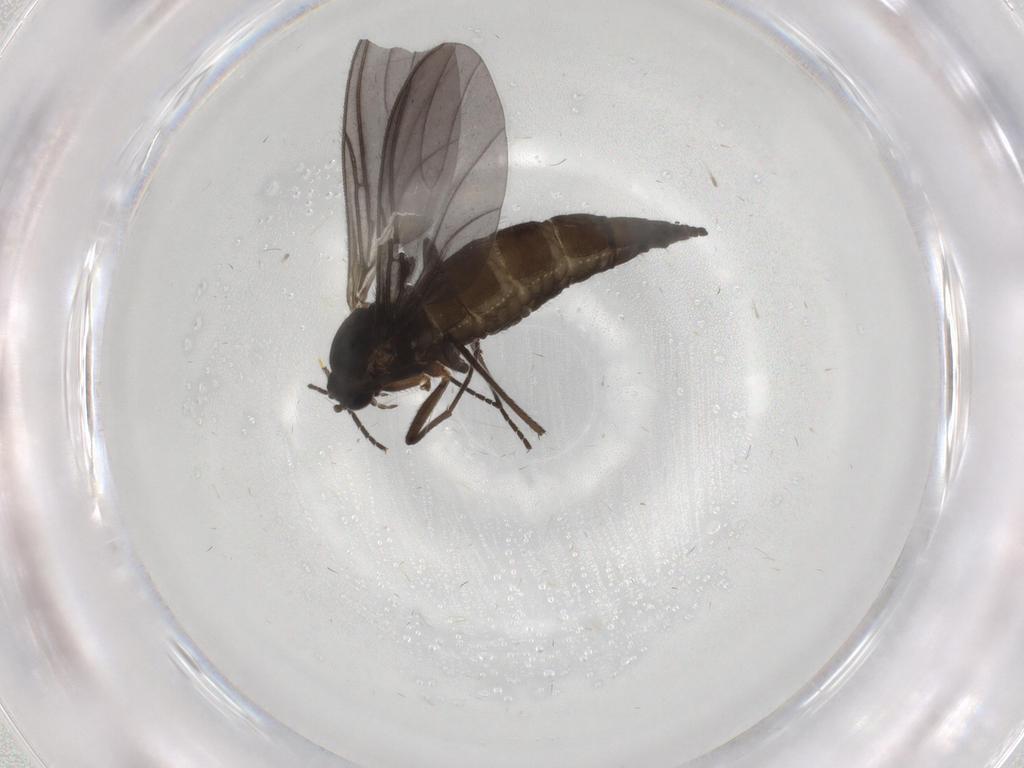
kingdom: Animalia
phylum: Arthropoda
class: Insecta
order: Diptera
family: Sciaridae
